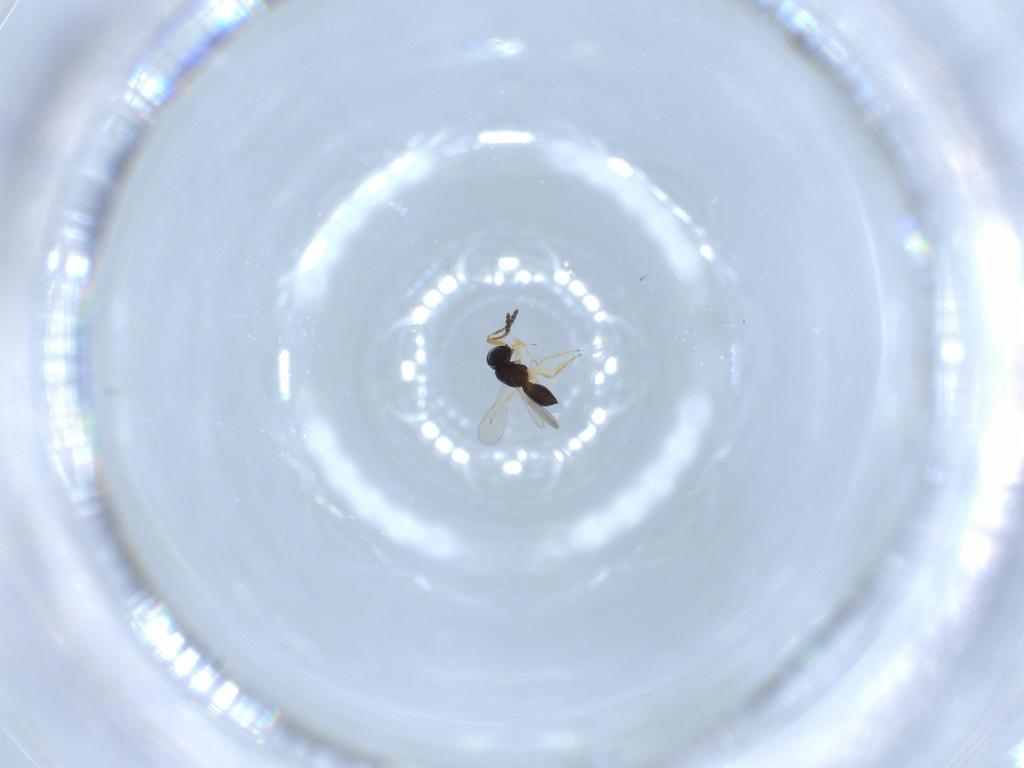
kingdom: Animalia
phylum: Arthropoda
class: Insecta
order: Hymenoptera
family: Scelionidae
